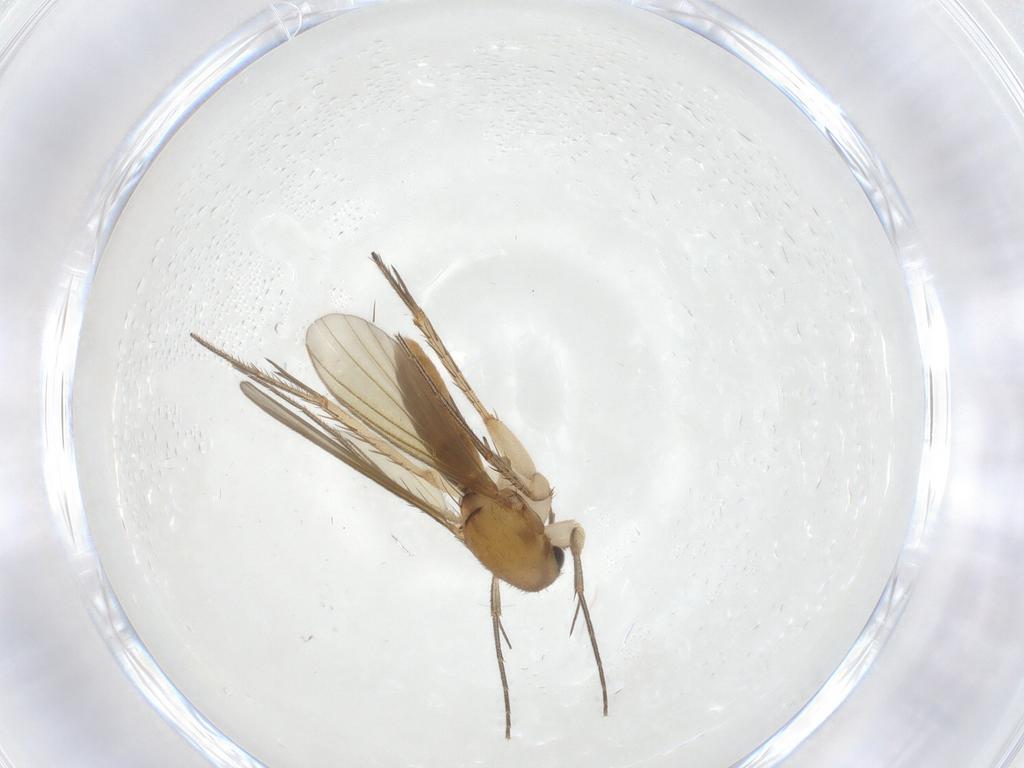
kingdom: Animalia
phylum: Arthropoda
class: Insecta
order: Diptera
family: Mycetophilidae
